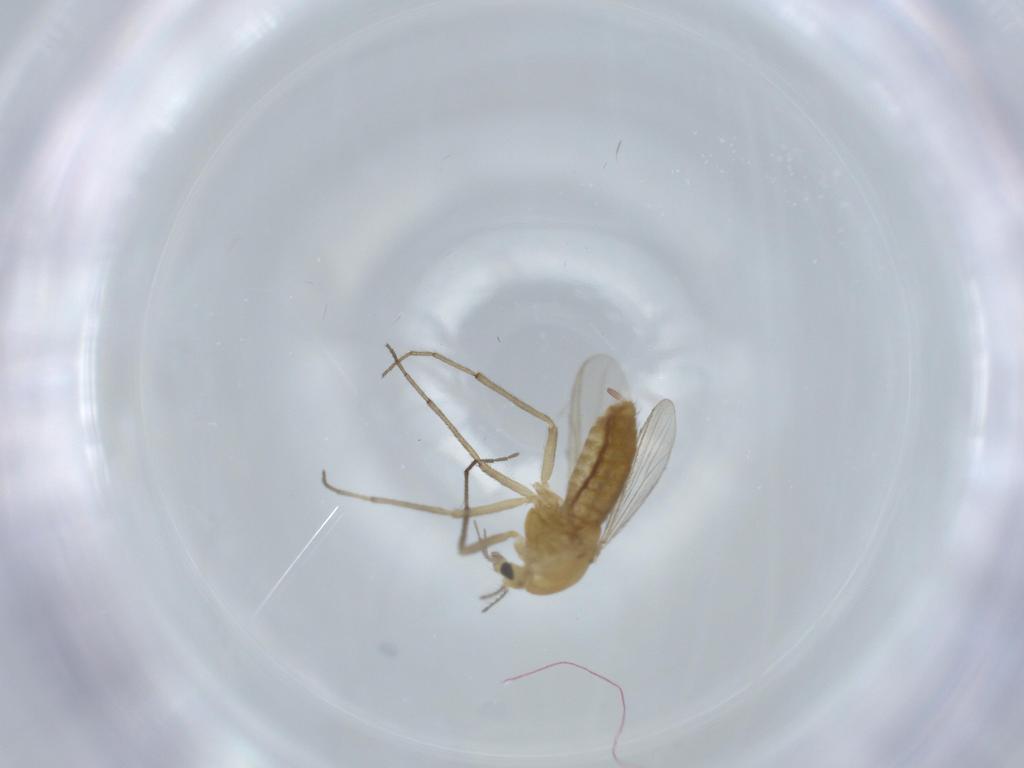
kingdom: Animalia
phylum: Arthropoda
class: Insecta
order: Diptera
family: Chironomidae
